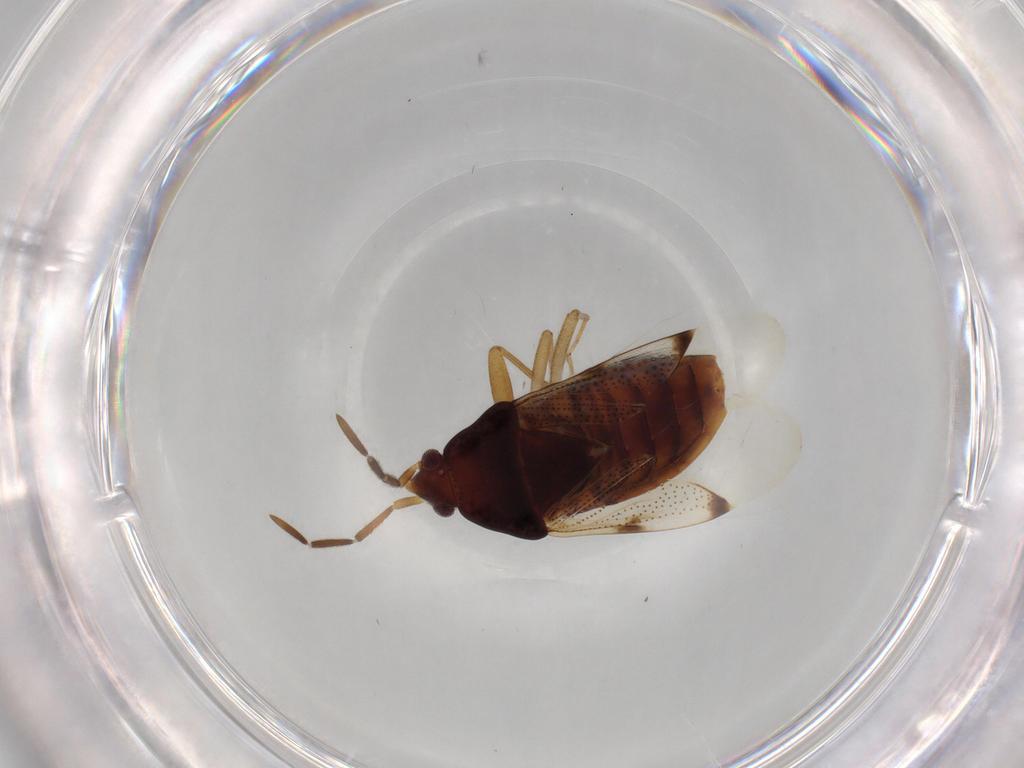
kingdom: Animalia
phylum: Arthropoda
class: Insecta
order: Hemiptera
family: Rhyparochromidae
